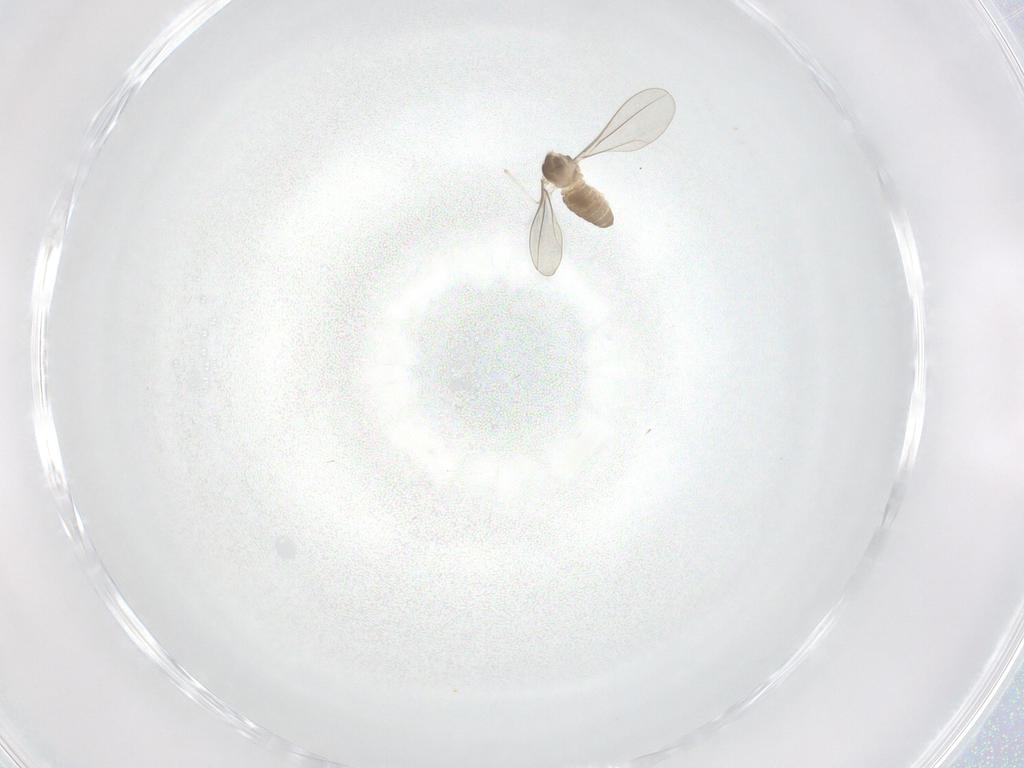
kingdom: Animalia
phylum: Arthropoda
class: Insecta
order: Diptera
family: Cecidomyiidae
